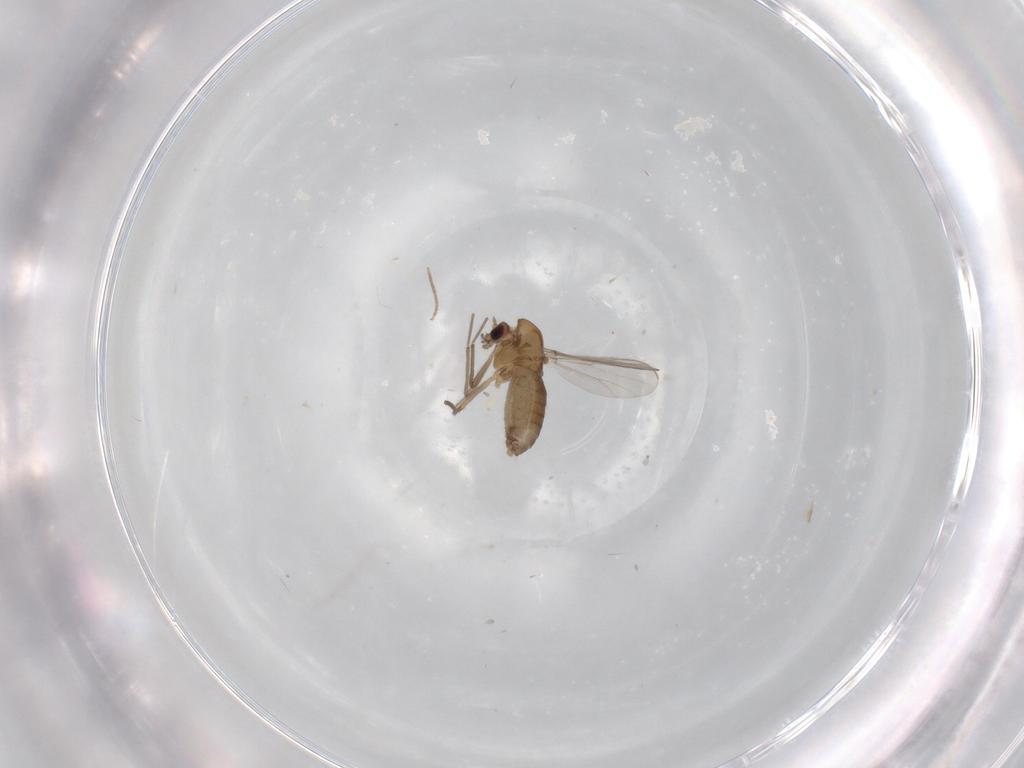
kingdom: Animalia
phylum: Arthropoda
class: Insecta
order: Diptera
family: Chironomidae
